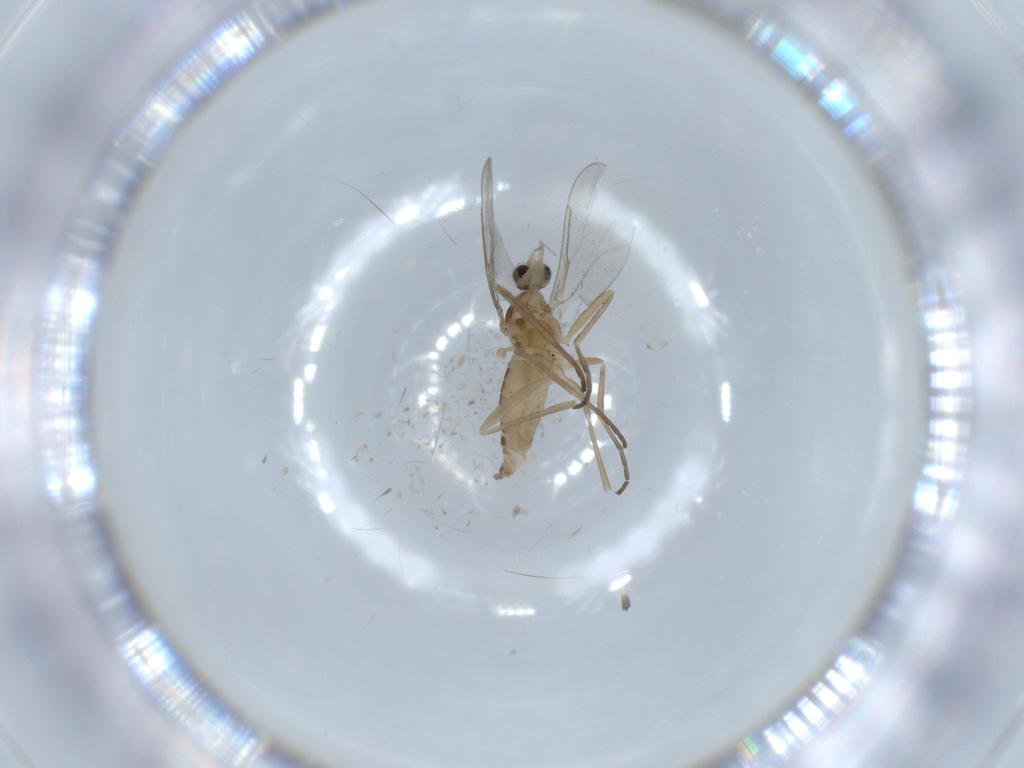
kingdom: Animalia
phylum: Arthropoda
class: Insecta
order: Diptera
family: Cecidomyiidae
